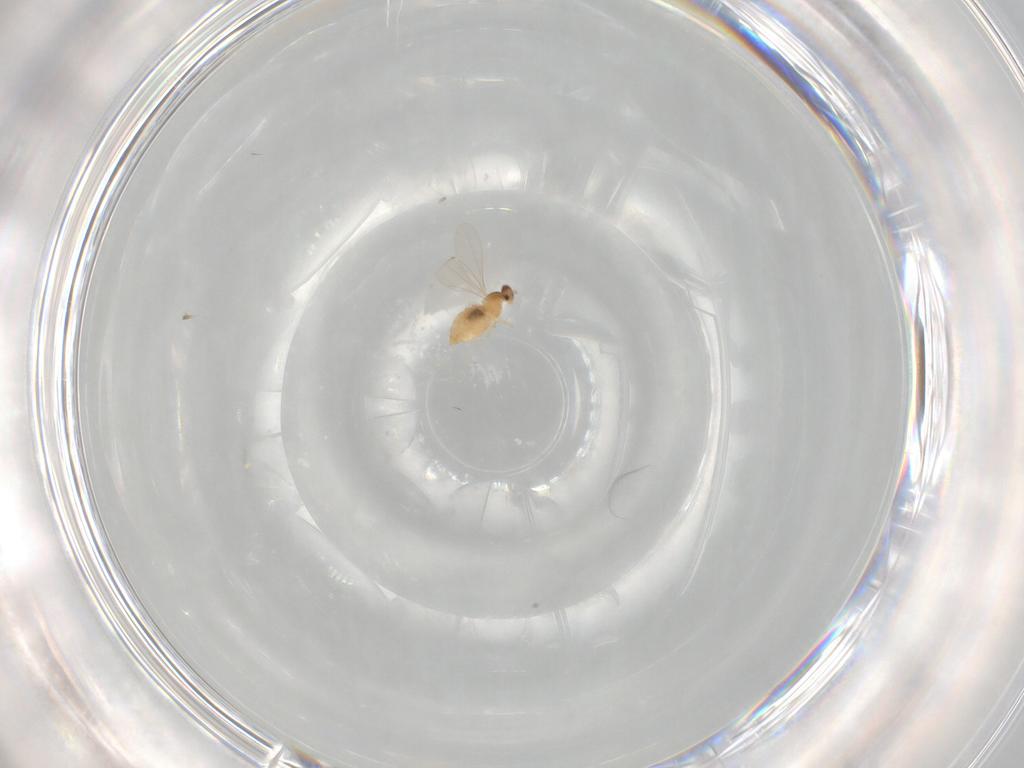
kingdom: Animalia
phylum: Arthropoda
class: Insecta
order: Diptera
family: Cecidomyiidae
